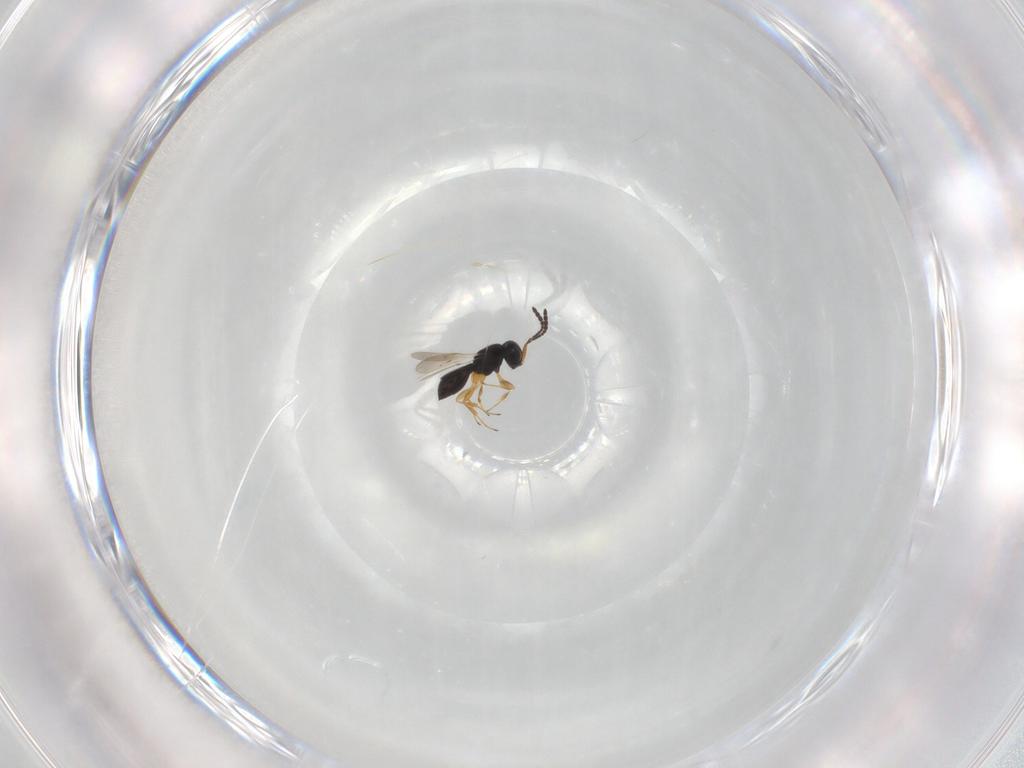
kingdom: Animalia
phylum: Arthropoda
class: Insecta
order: Hymenoptera
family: Scelionidae
